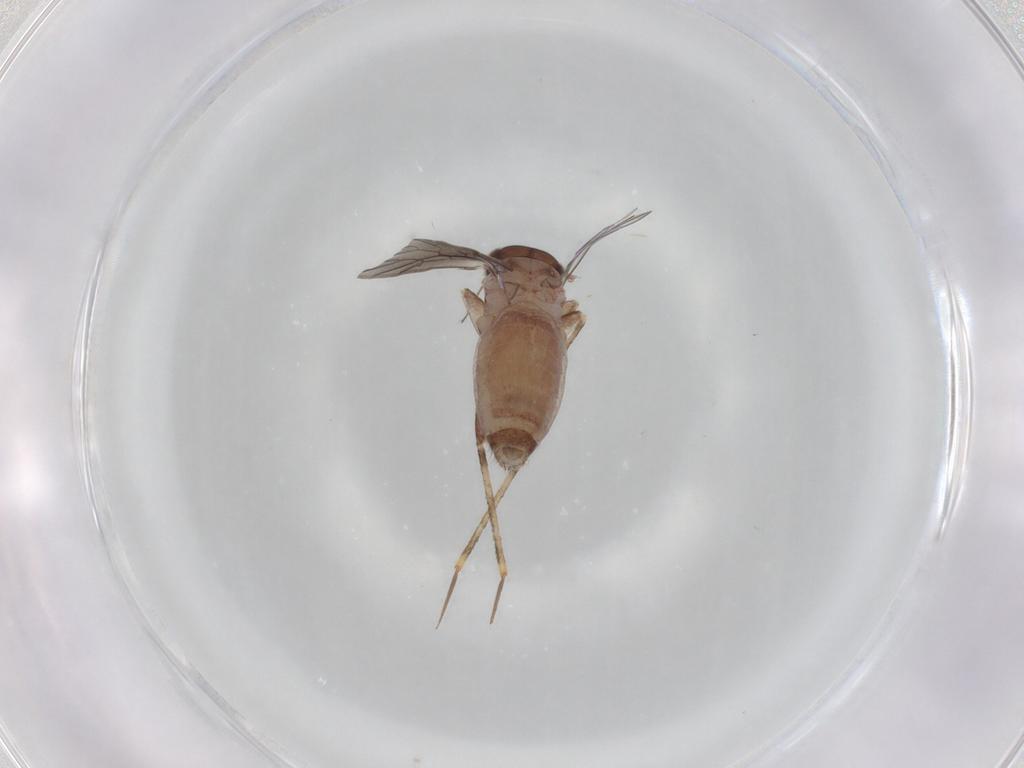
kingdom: Animalia
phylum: Arthropoda
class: Insecta
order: Psocodea
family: Lepidopsocidae
